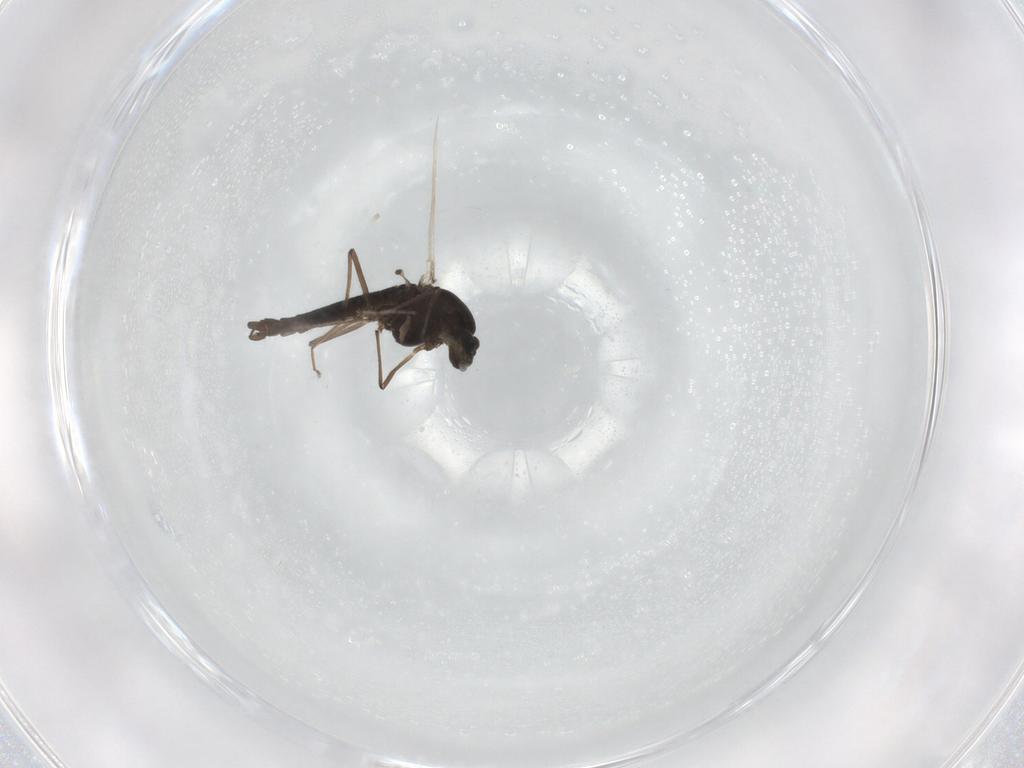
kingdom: Animalia
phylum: Arthropoda
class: Insecta
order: Diptera
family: Chironomidae
